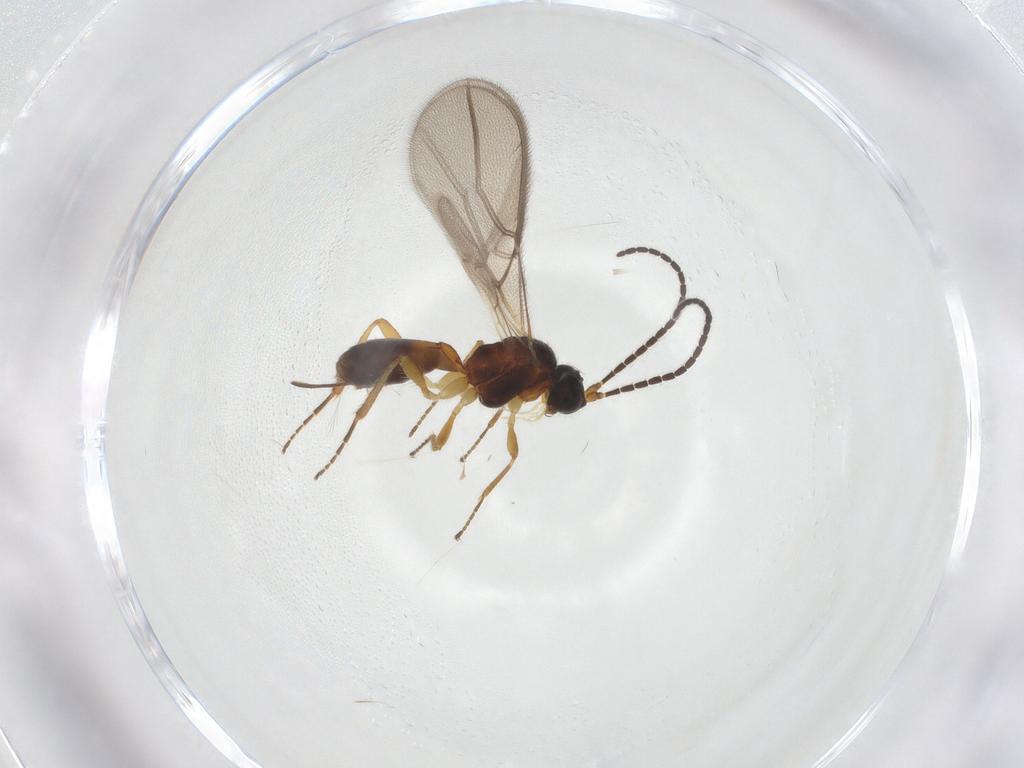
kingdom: Animalia
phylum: Arthropoda
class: Insecta
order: Hymenoptera
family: Braconidae
